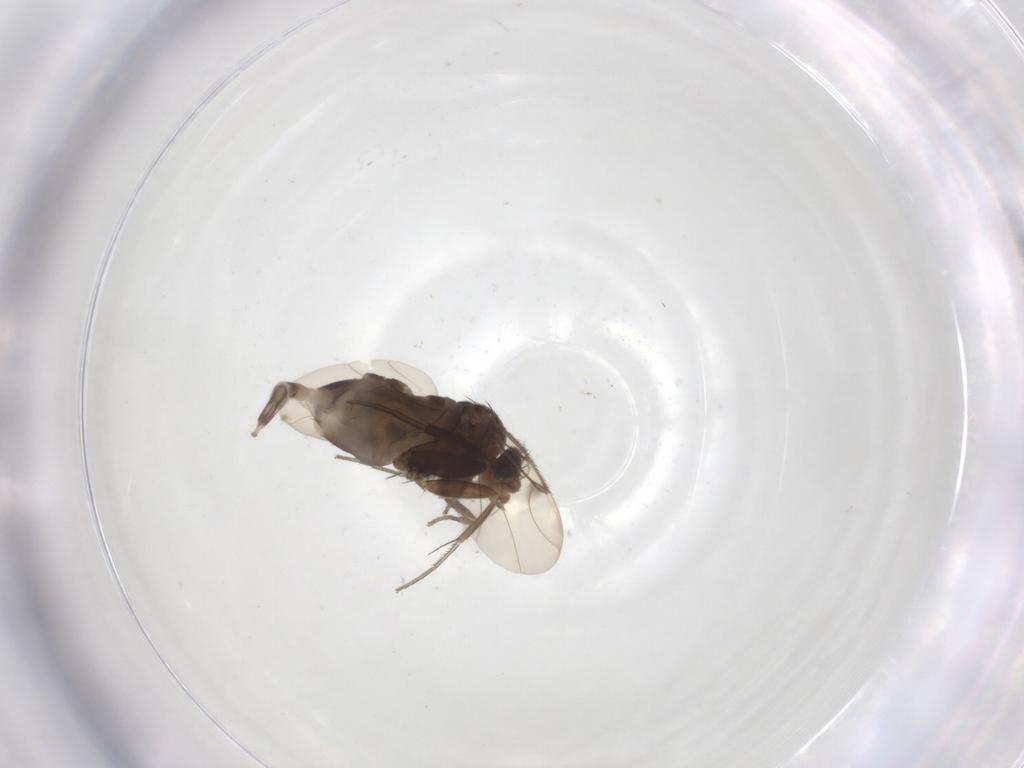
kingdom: Animalia
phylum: Arthropoda
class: Insecta
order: Diptera
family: Phoridae
